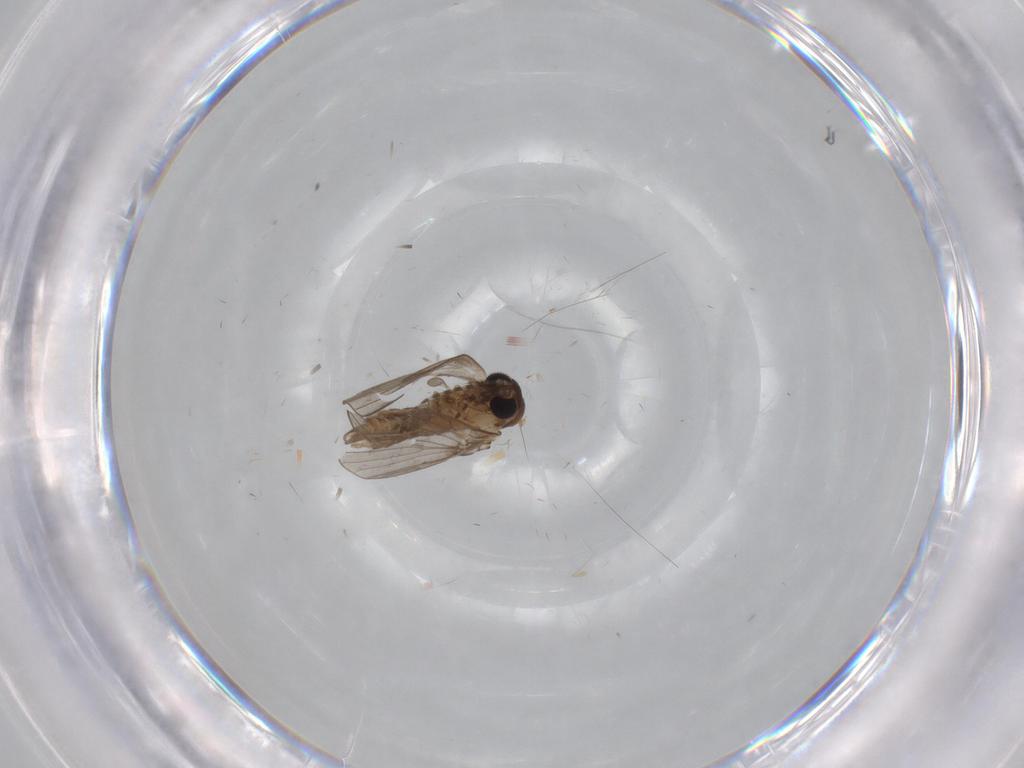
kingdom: Animalia
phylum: Arthropoda
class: Insecta
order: Diptera
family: Cecidomyiidae
